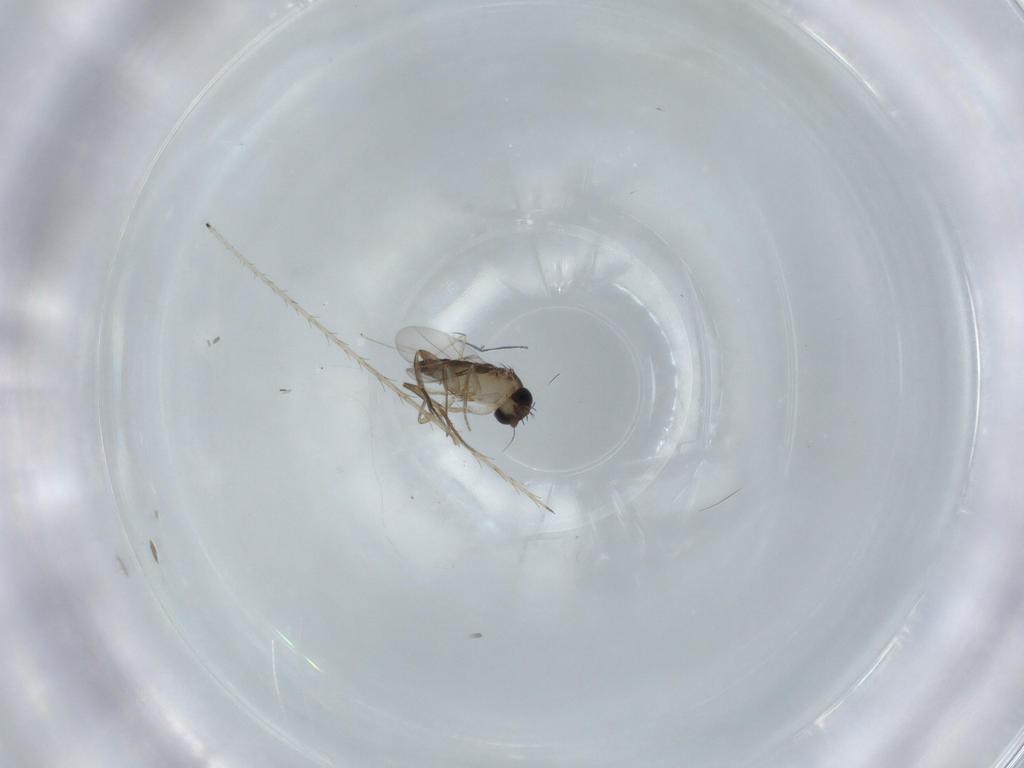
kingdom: Animalia
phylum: Arthropoda
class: Insecta
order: Diptera
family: Phoridae
